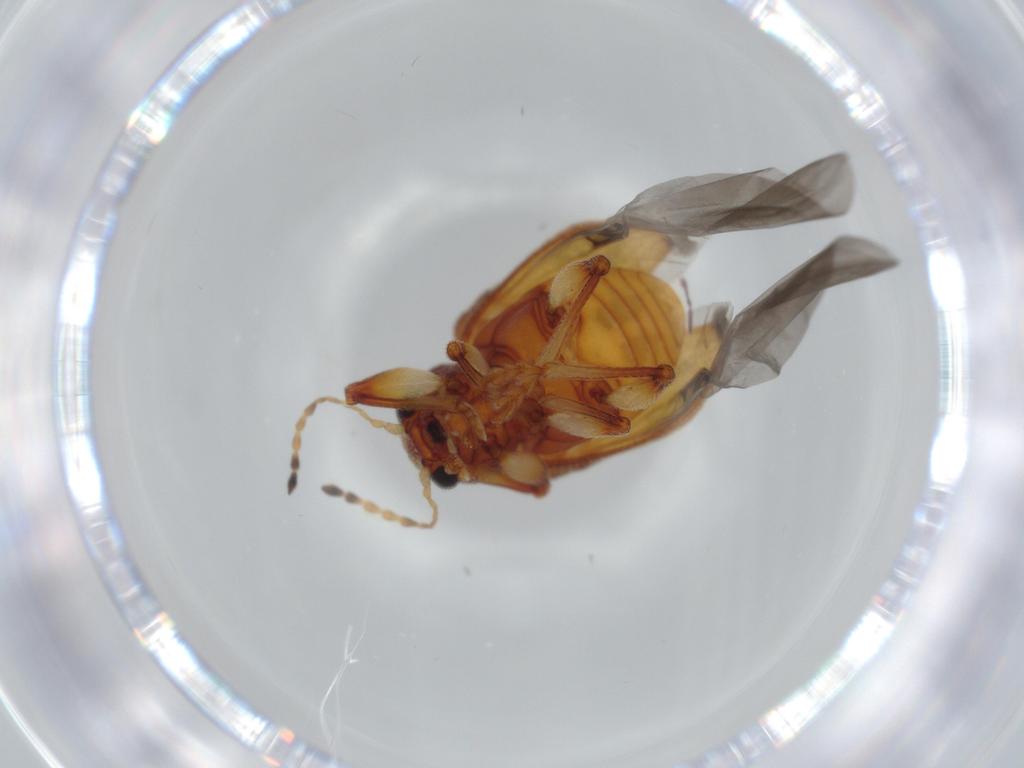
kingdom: Animalia
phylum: Arthropoda
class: Insecta
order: Coleoptera
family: Chrysomelidae
